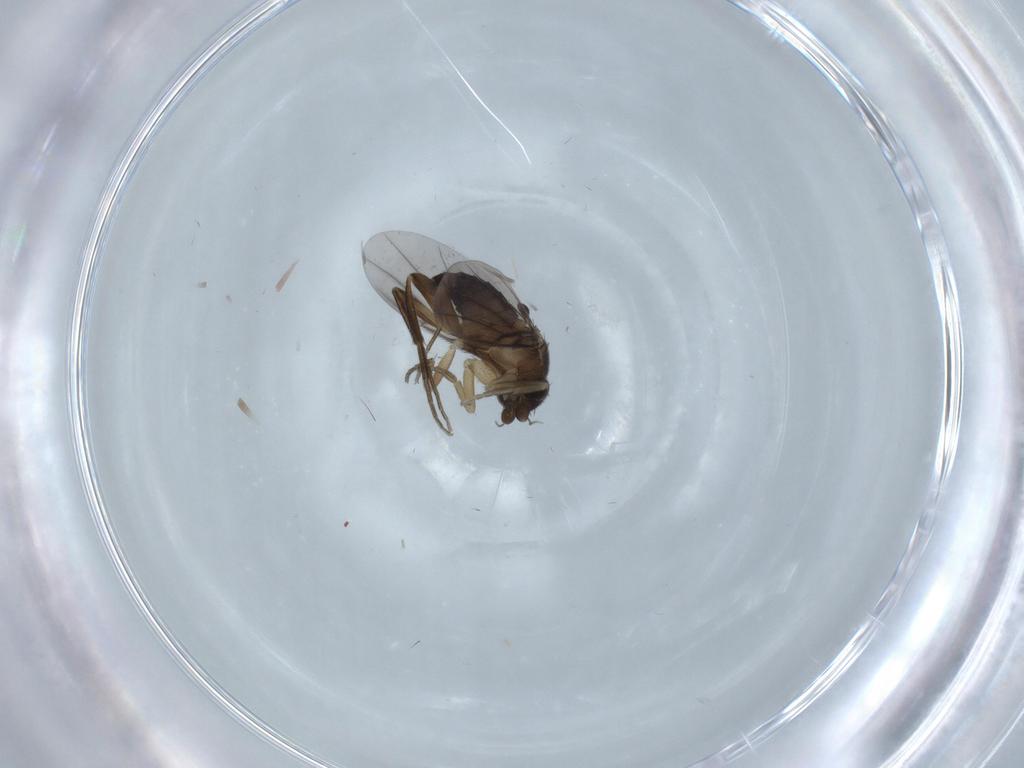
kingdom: Animalia
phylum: Arthropoda
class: Insecta
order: Diptera
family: Phoridae
